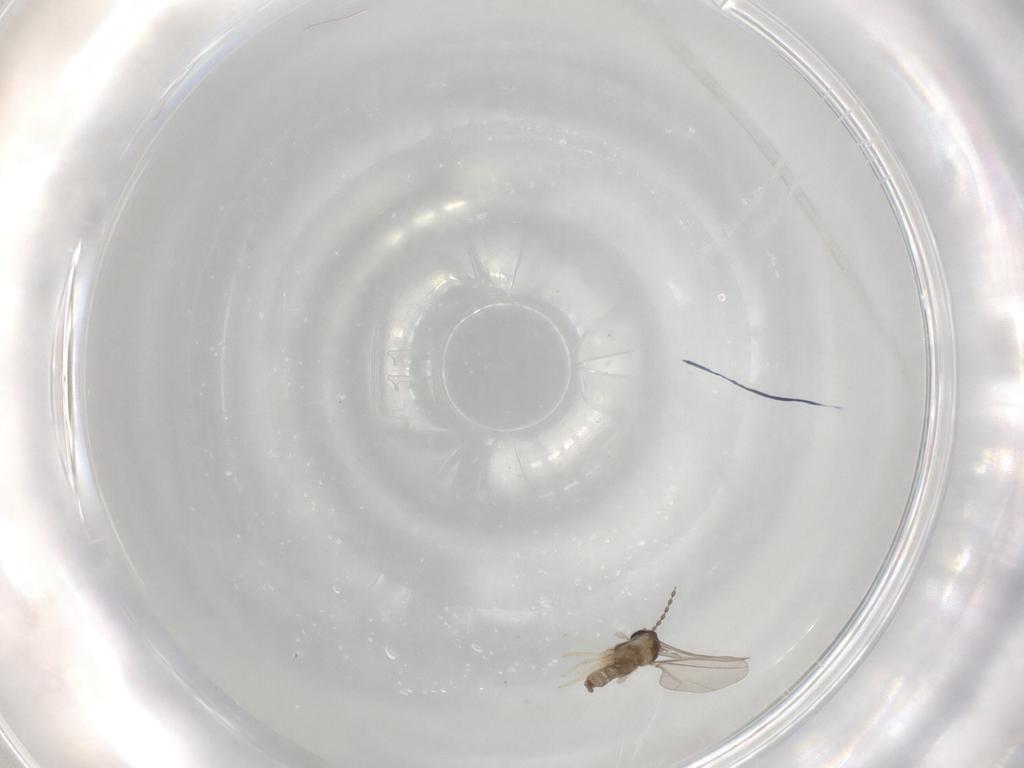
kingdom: Animalia
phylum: Arthropoda
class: Insecta
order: Diptera
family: Cecidomyiidae
